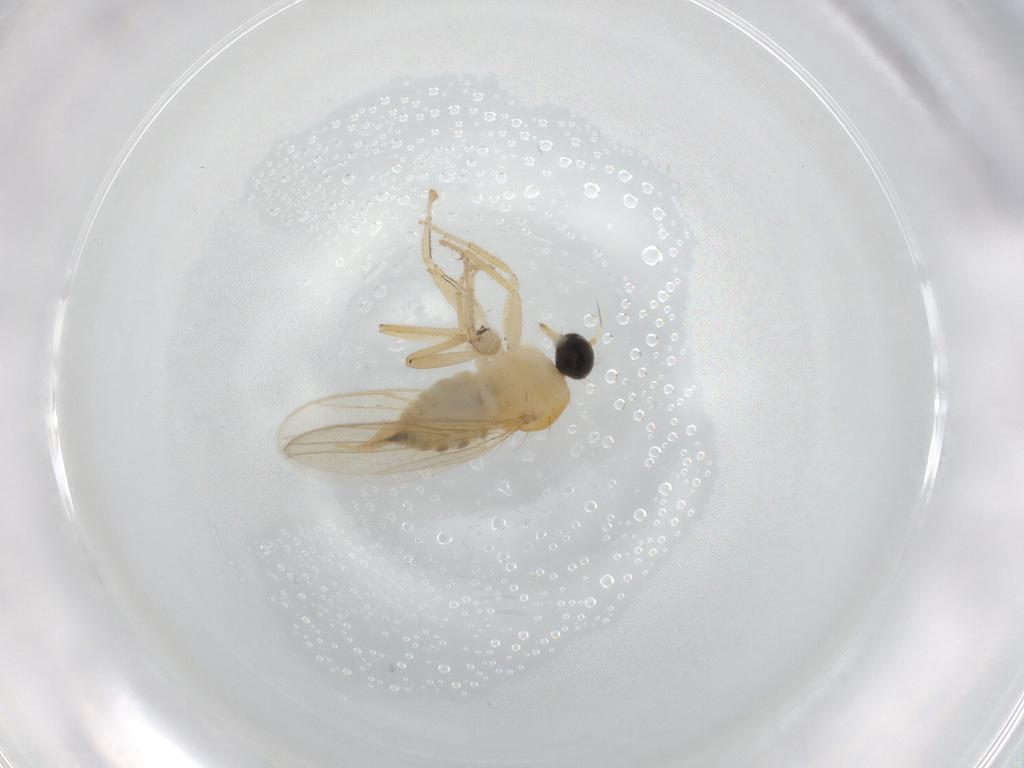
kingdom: Animalia
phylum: Arthropoda
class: Insecta
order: Diptera
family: Sciaridae
